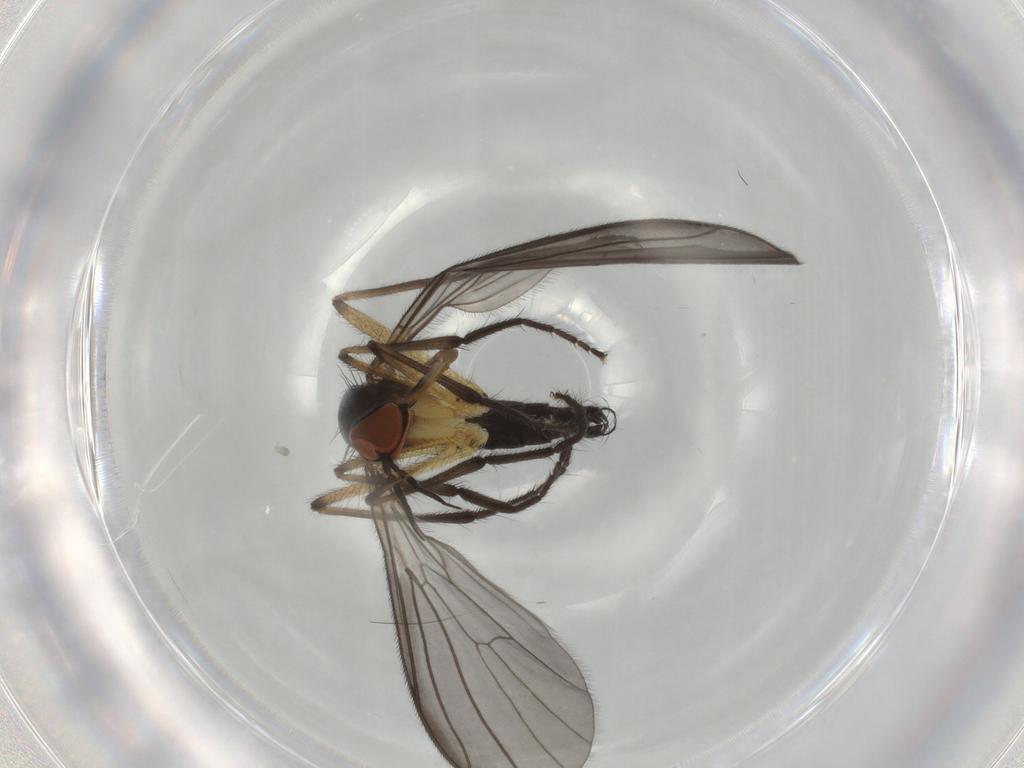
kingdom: Animalia
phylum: Arthropoda
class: Insecta
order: Diptera
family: Empididae
